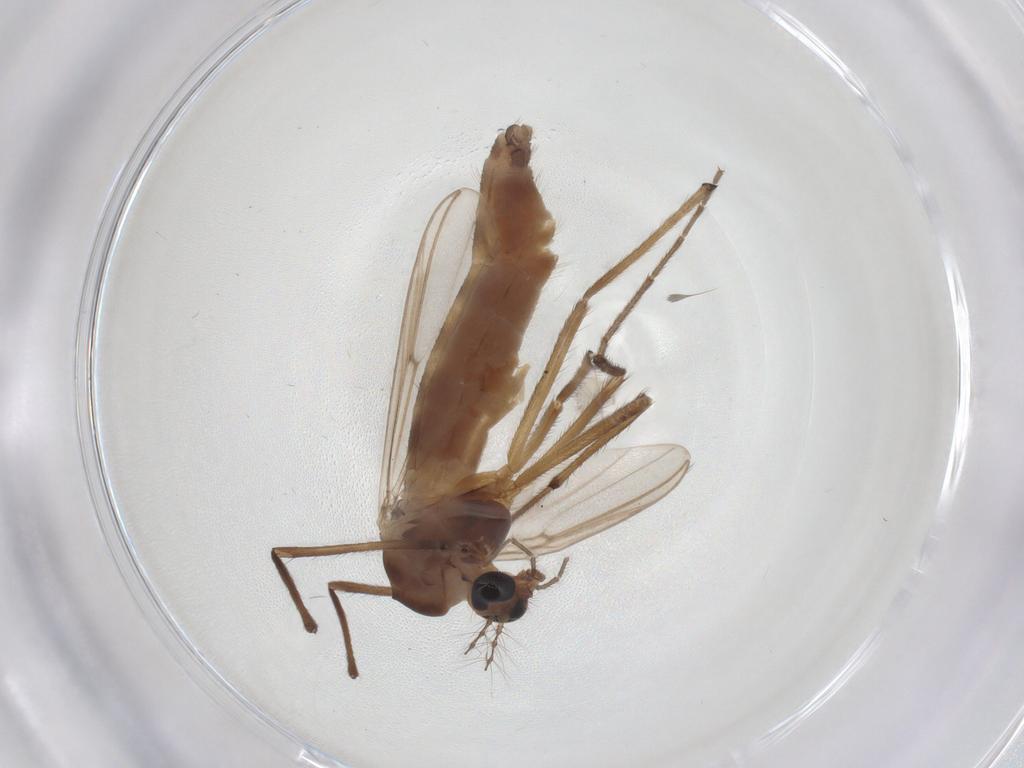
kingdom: Animalia
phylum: Arthropoda
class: Insecta
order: Diptera
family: Chironomidae
